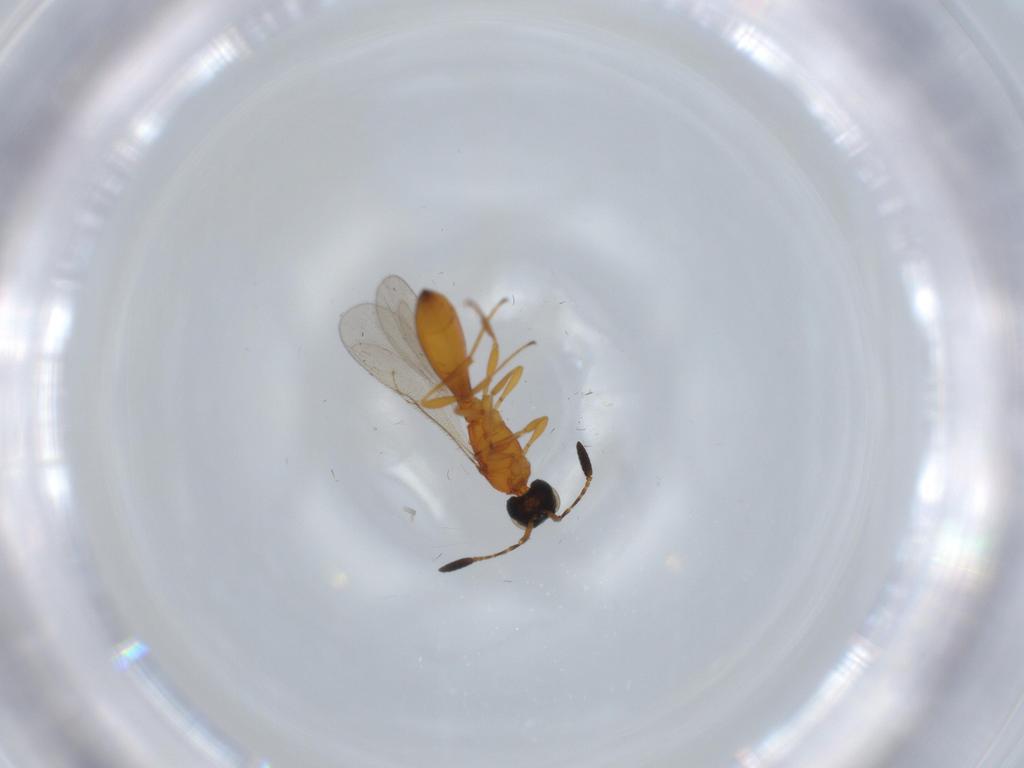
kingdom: Animalia
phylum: Arthropoda
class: Insecta
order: Hymenoptera
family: Scelionidae
